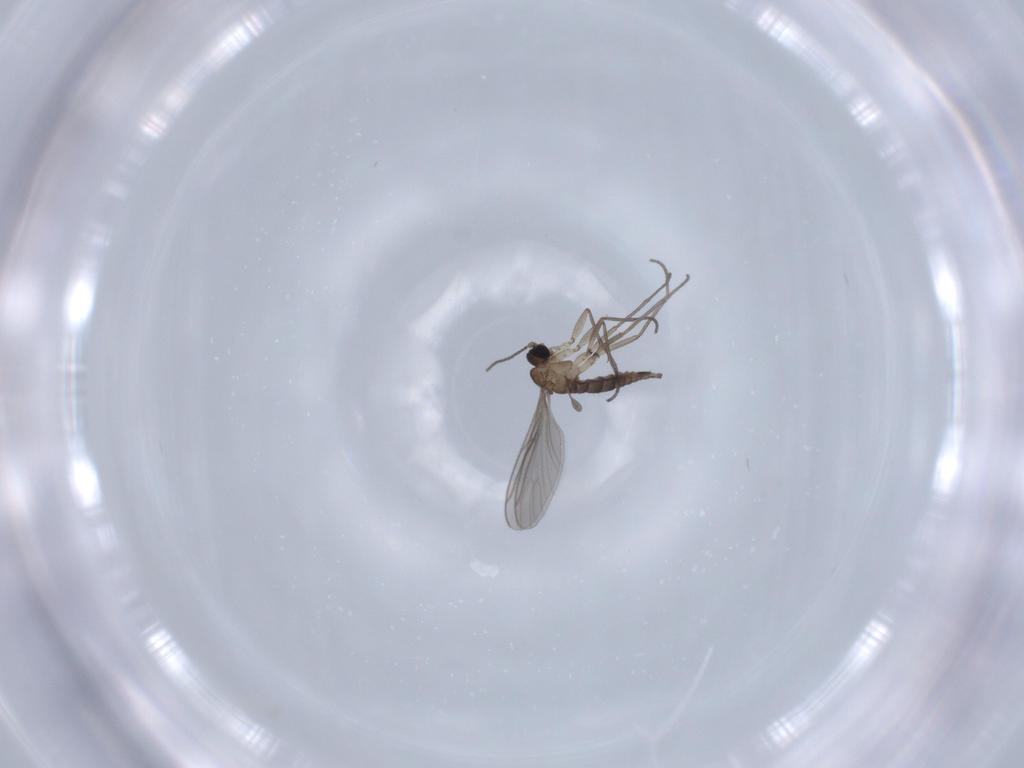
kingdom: Animalia
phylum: Arthropoda
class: Insecta
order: Diptera
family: Sciaridae
